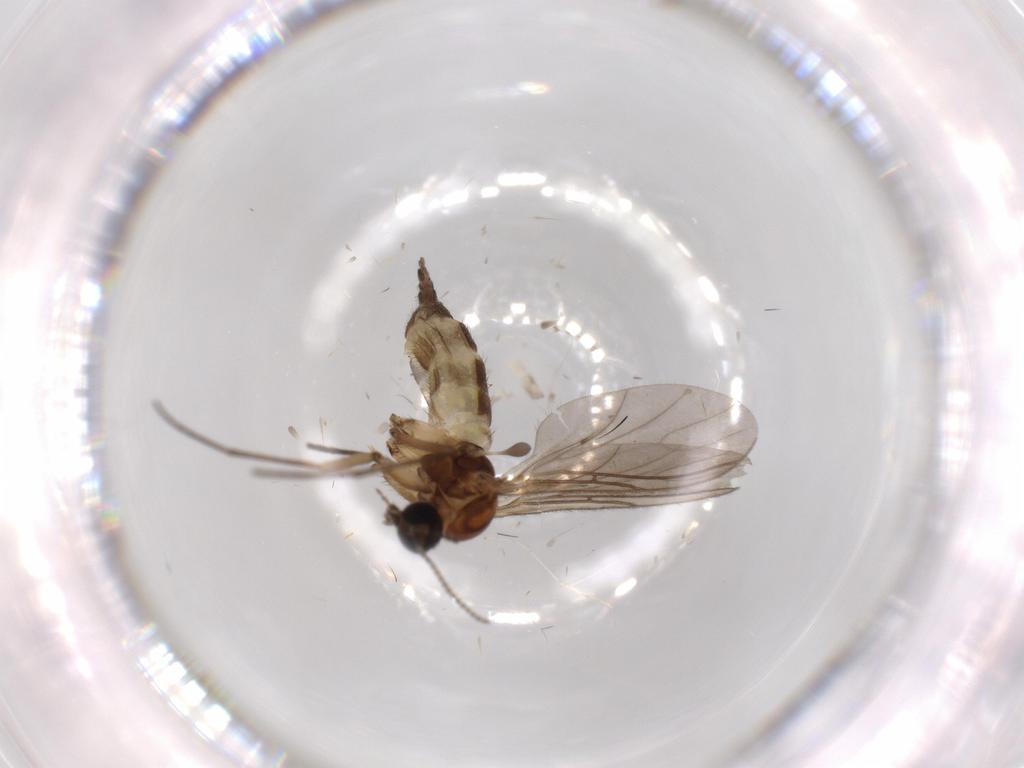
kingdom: Animalia
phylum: Arthropoda
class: Insecta
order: Diptera
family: Chironomidae
